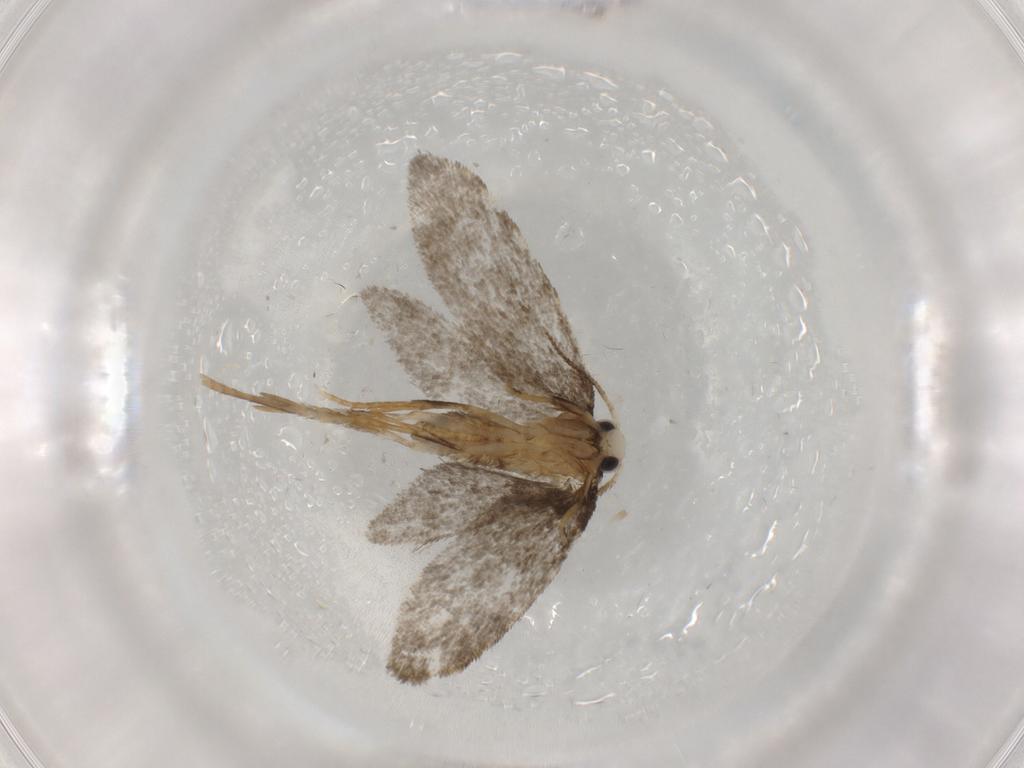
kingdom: Animalia
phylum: Arthropoda
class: Insecta
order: Lepidoptera
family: Psychidae
